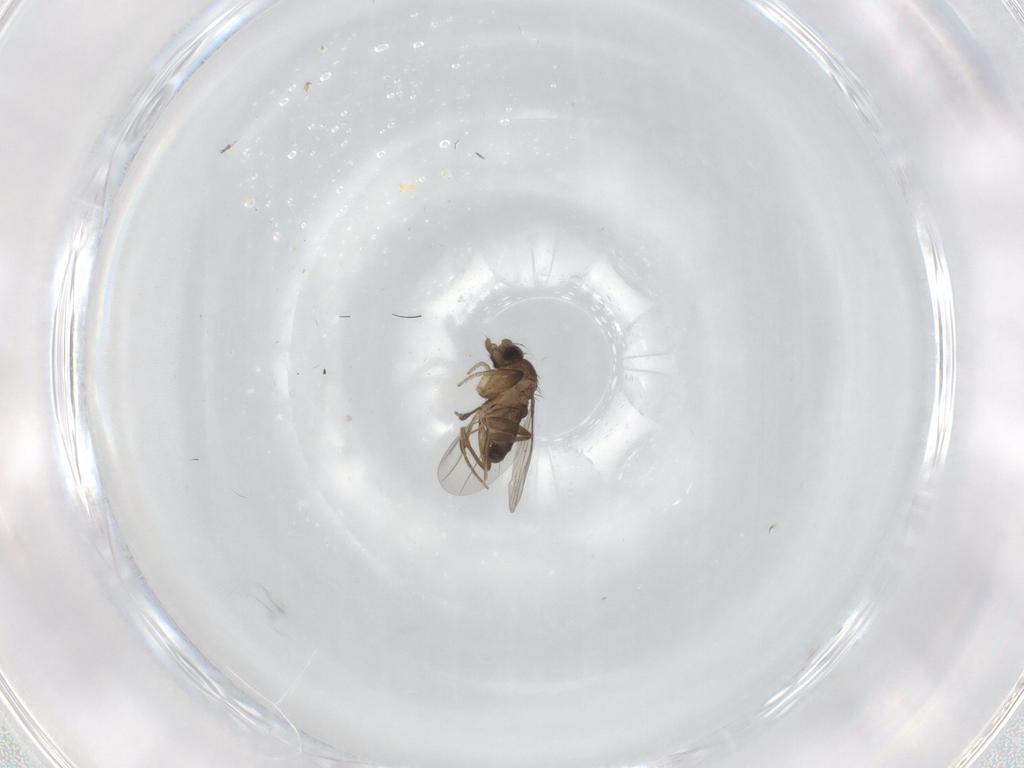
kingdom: Animalia
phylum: Arthropoda
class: Insecta
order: Diptera
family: Phoridae
